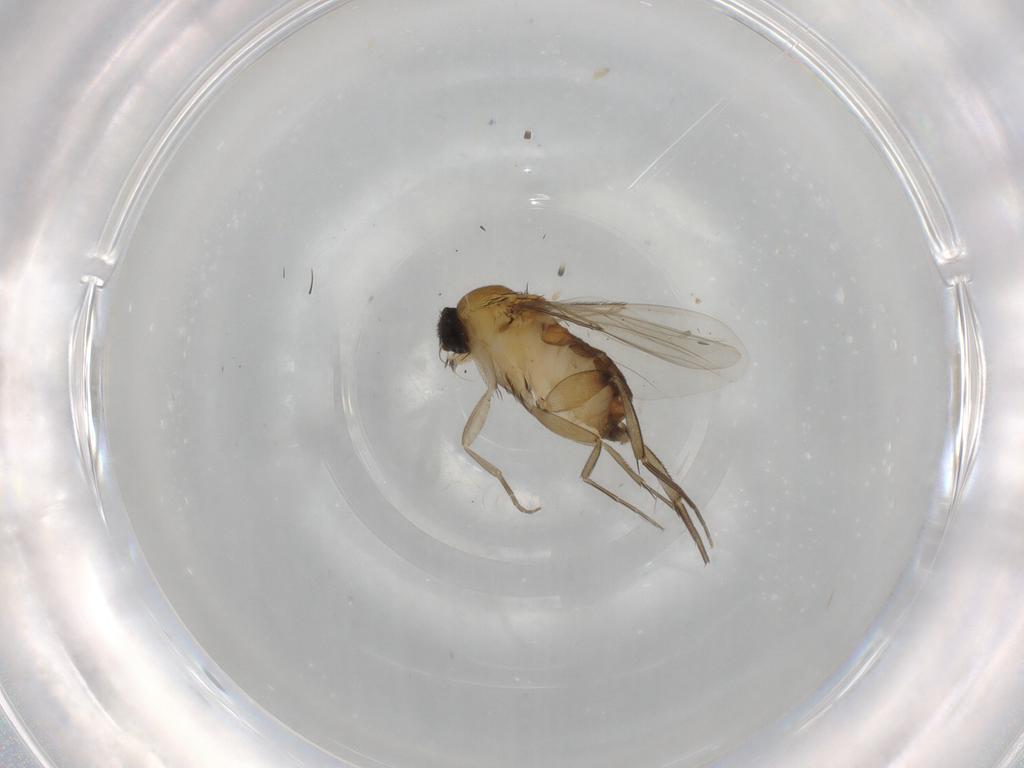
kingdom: Animalia
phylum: Arthropoda
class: Insecta
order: Diptera
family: Phoridae
